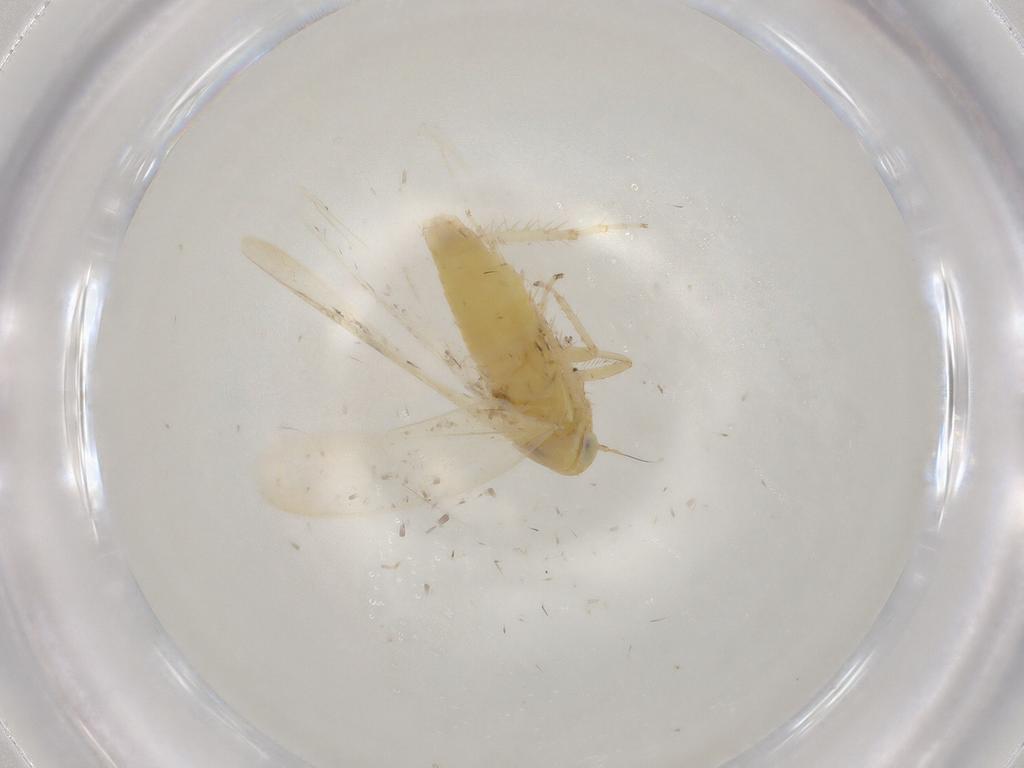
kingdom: Animalia
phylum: Arthropoda
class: Insecta
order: Hemiptera
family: Cicadellidae
